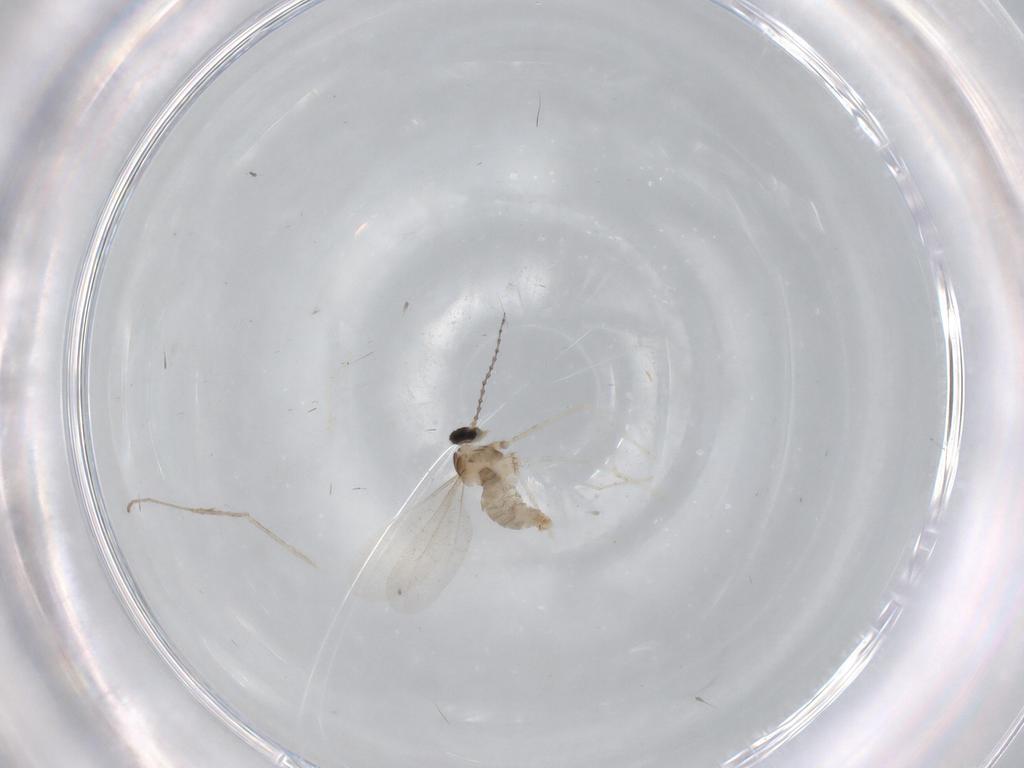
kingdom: Animalia
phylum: Arthropoda
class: Insecta
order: Diptera
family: Cecidomyiidae
